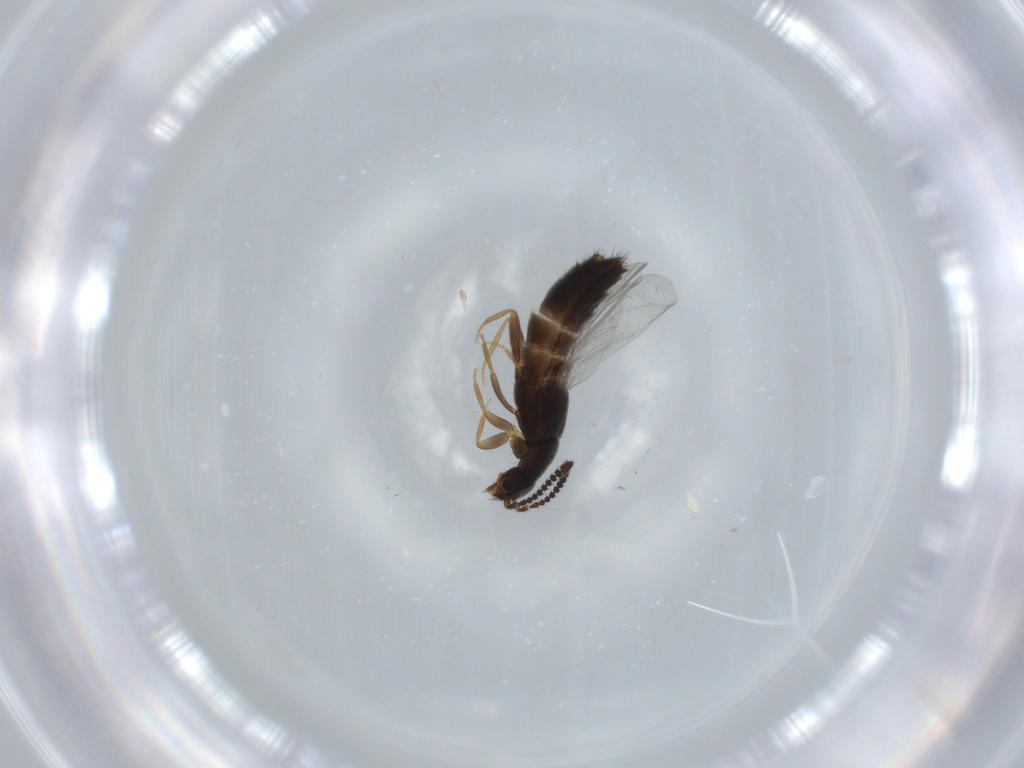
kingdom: Animalia
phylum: Arthropoda
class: Insecta
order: Coleoptera
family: Staphylinidae
